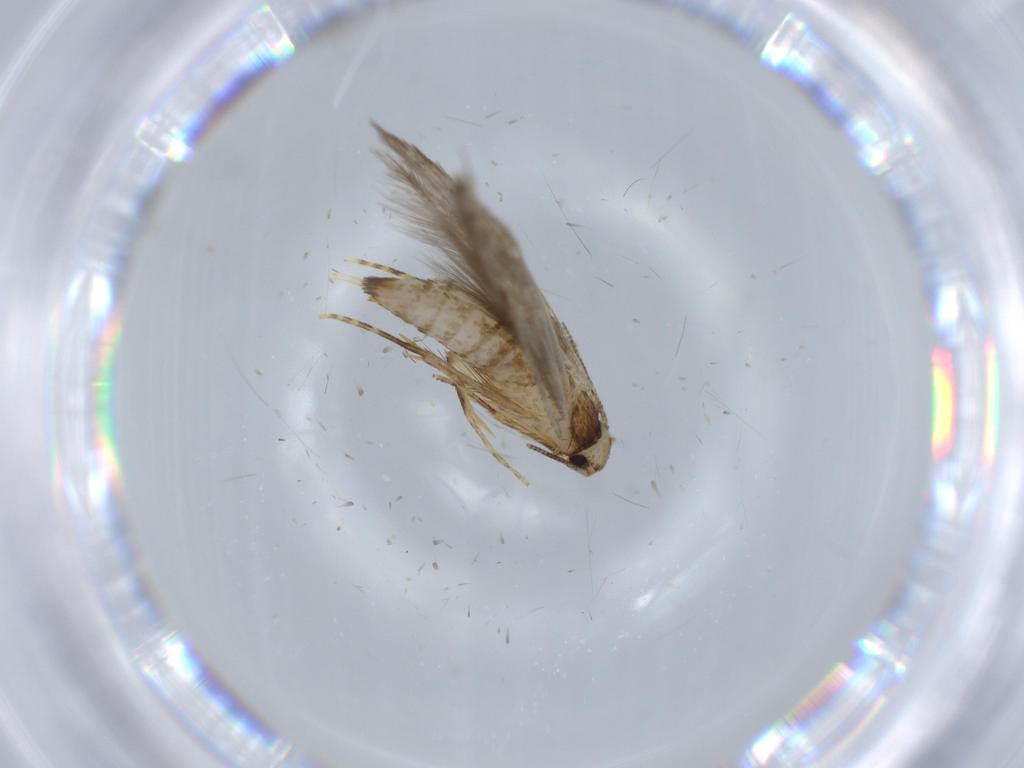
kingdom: Animalia
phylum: Arthropoda
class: Insecta
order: Lepidoptera
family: Tineidae
